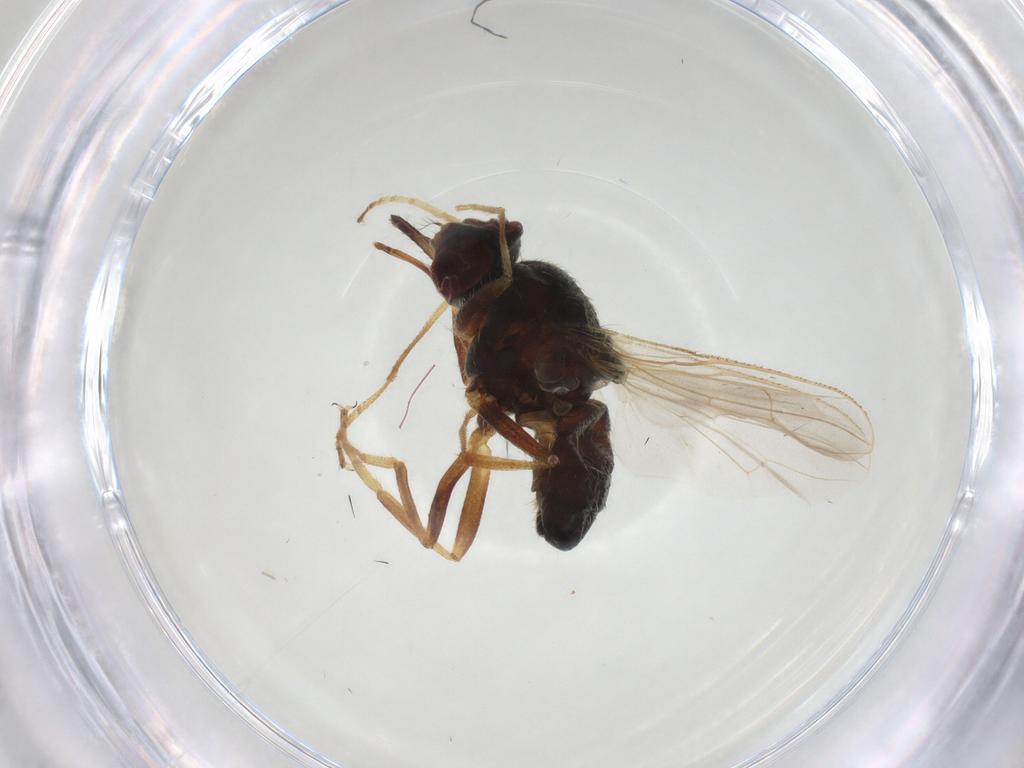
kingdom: Animalia
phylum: Arthropoda
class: Insecta
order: Diptera
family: Muscidae
